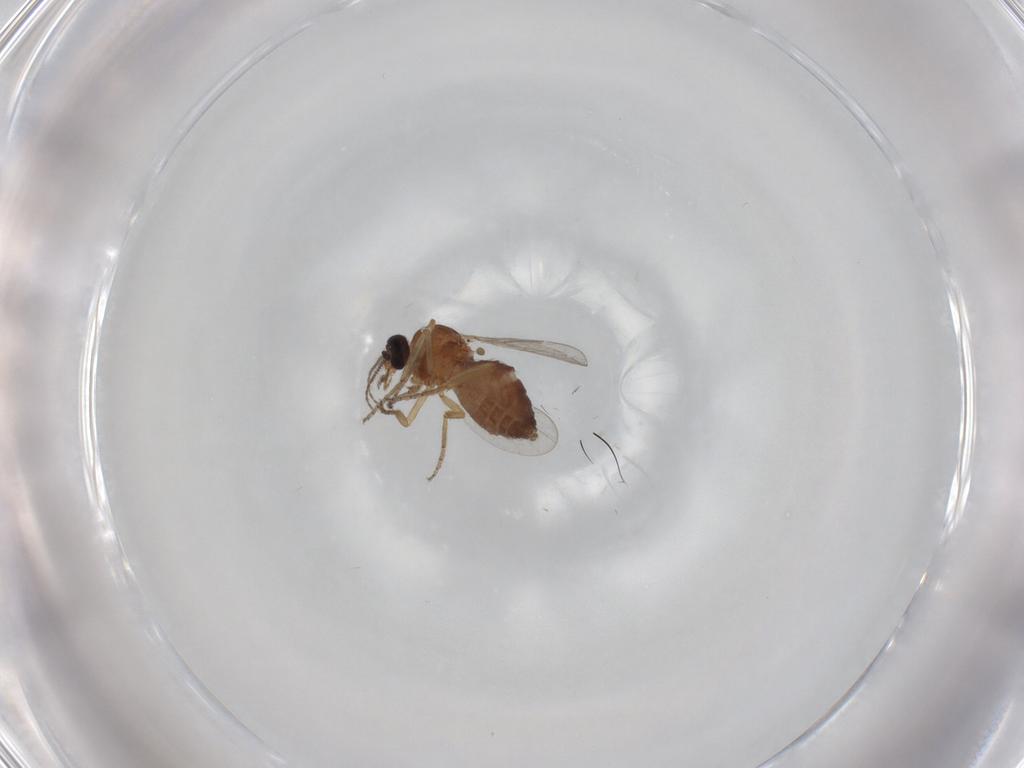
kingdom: Animalia
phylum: Arthropoda
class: Insecta
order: Diptera
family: Ceratopogonidae
